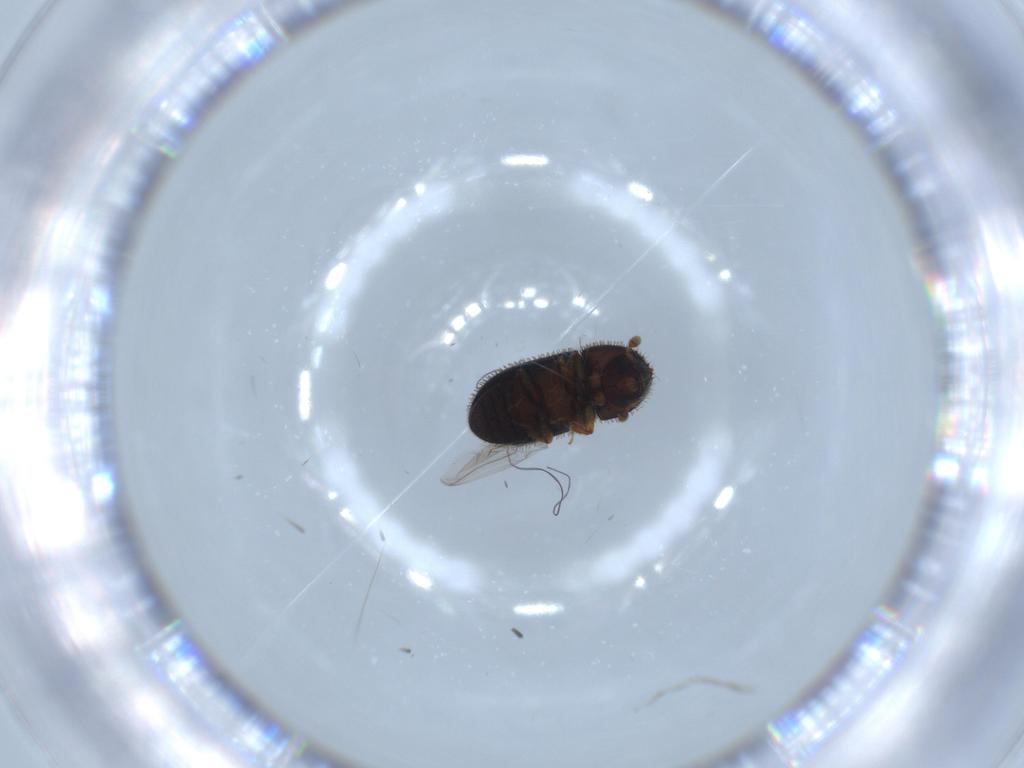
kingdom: Animalia
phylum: Arthropoda
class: Insecta
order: Coleoptera
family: Curculionidae
